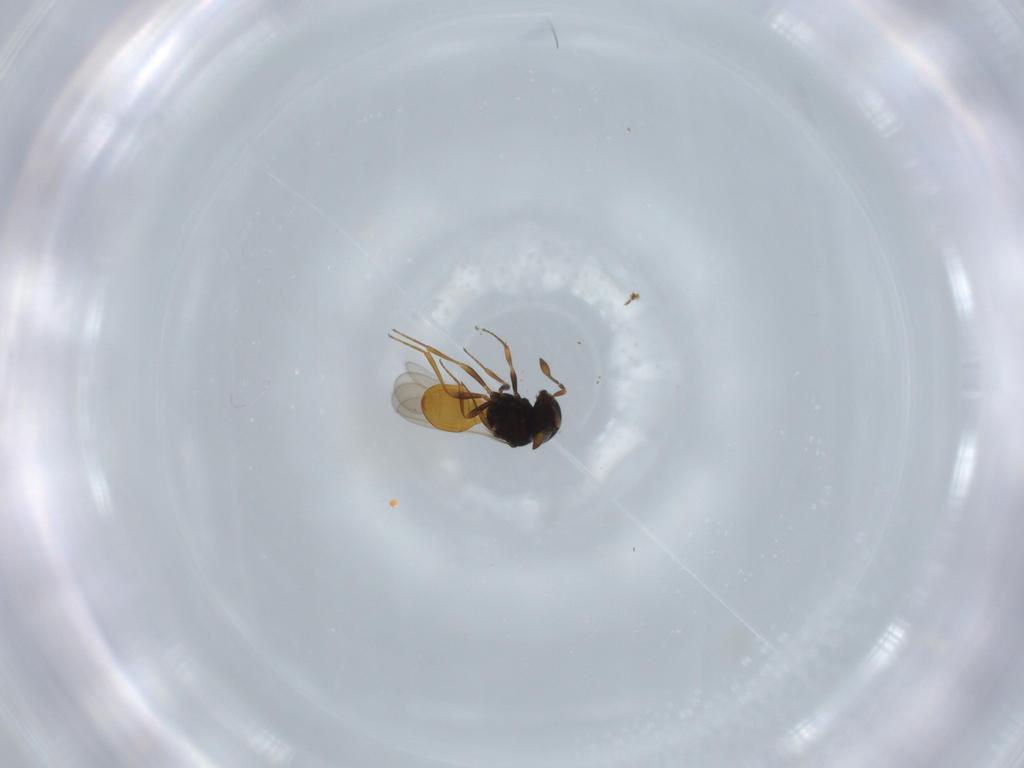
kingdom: Animalia
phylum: Arthropoda
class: Insecta
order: Hymenoptera
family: Scelionidae
